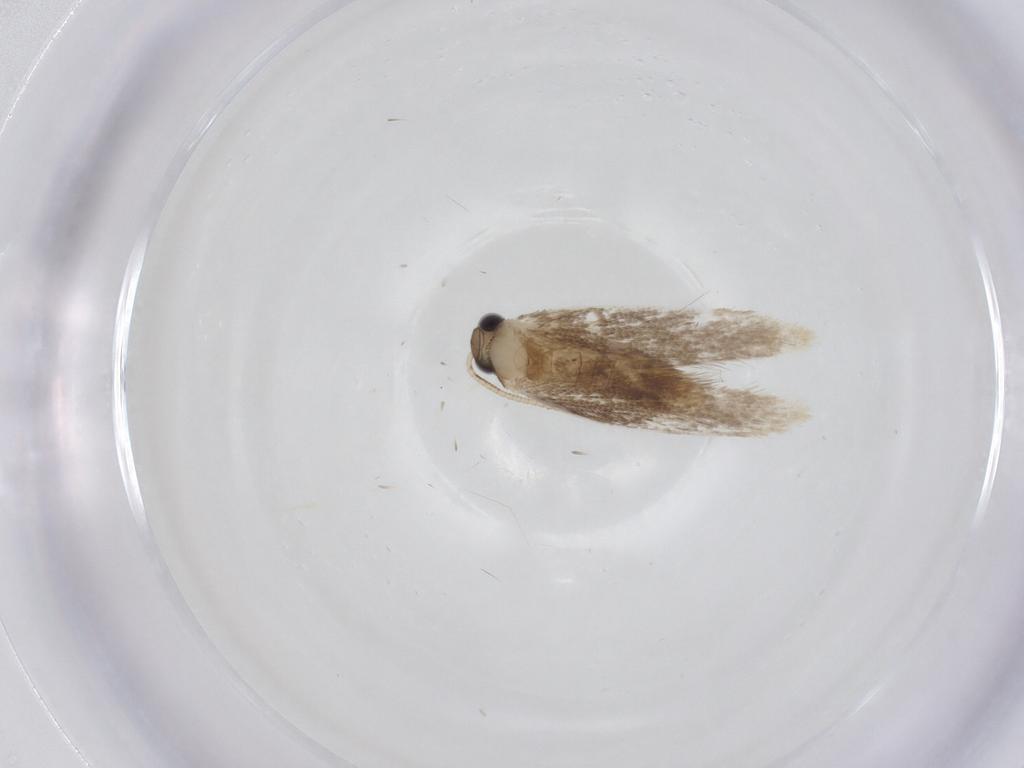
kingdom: Animalia
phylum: Arthropoda
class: Insecta
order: Lepidoptera
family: Dryadaulidae
